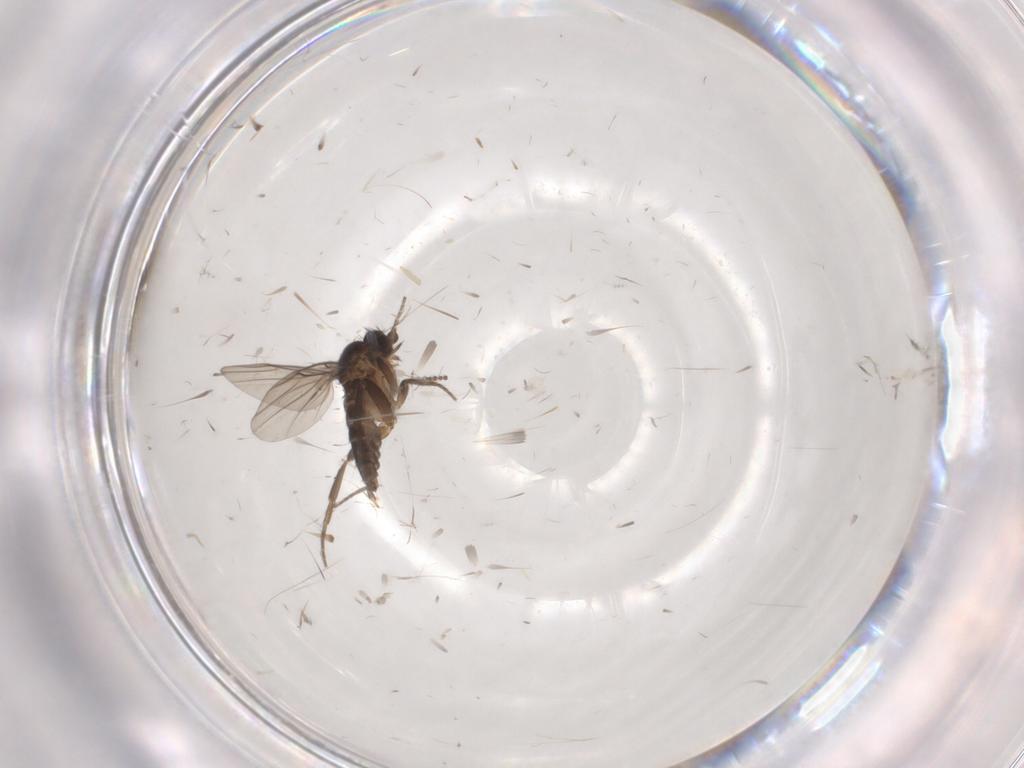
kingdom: Animalia
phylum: Arthropoda
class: Insecta
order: Diptera
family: Phoridae
